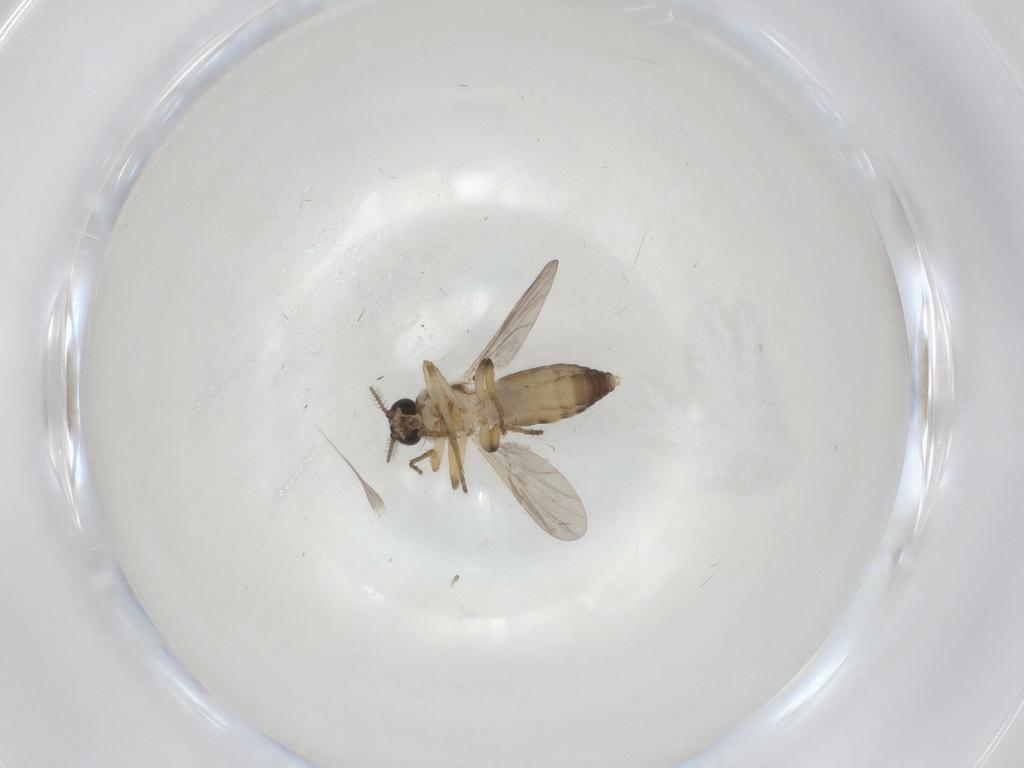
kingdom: Animalia
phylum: Arthropoda
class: Insecta
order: Diptera
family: Ceratopogonidae
